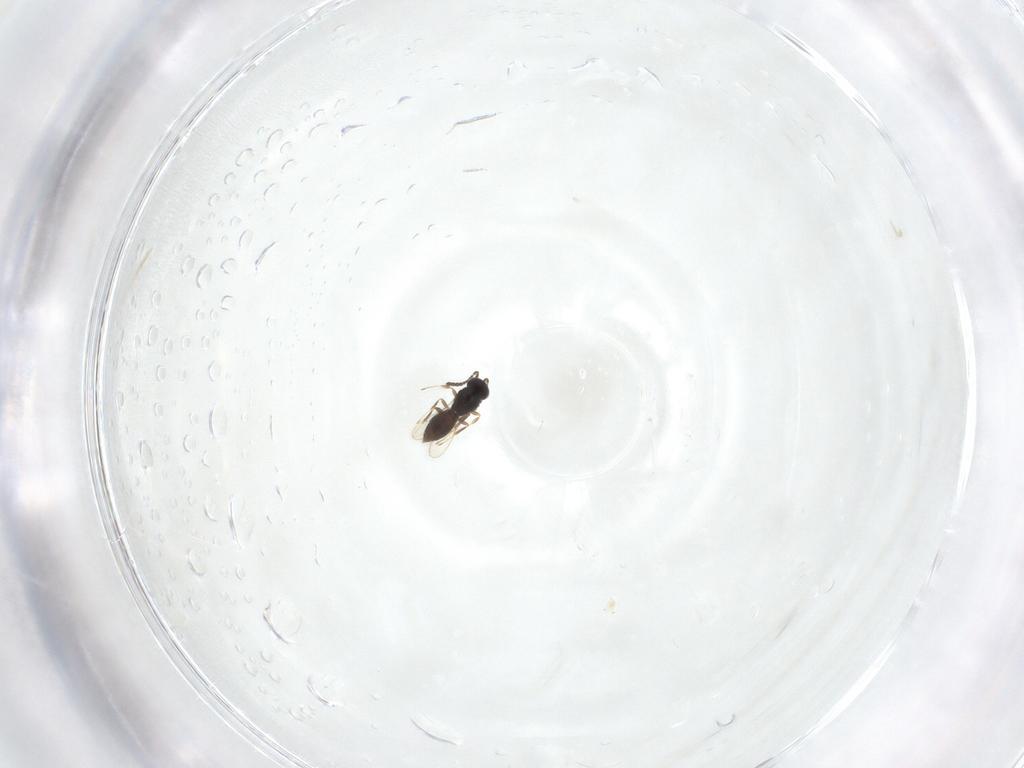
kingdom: Animalia
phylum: Arthropoda
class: Insecta
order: Hymenoptera
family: Scelionidae
